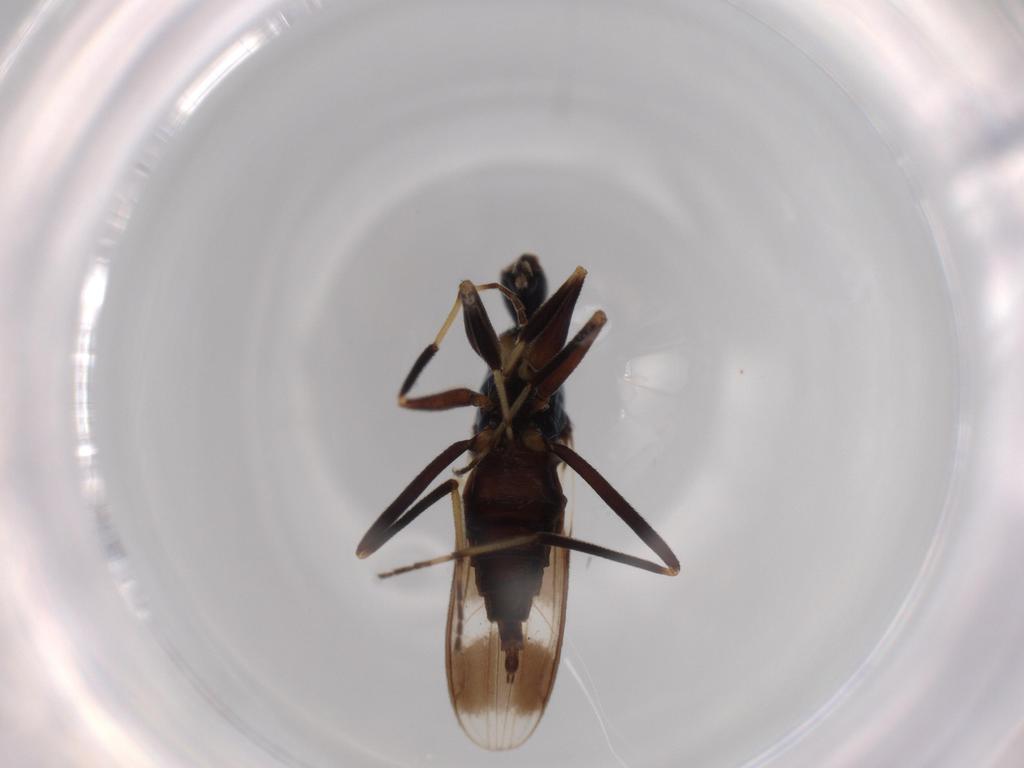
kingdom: Animalia
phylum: Arthropoda
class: Insecta
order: Diptera
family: Hybotidae
